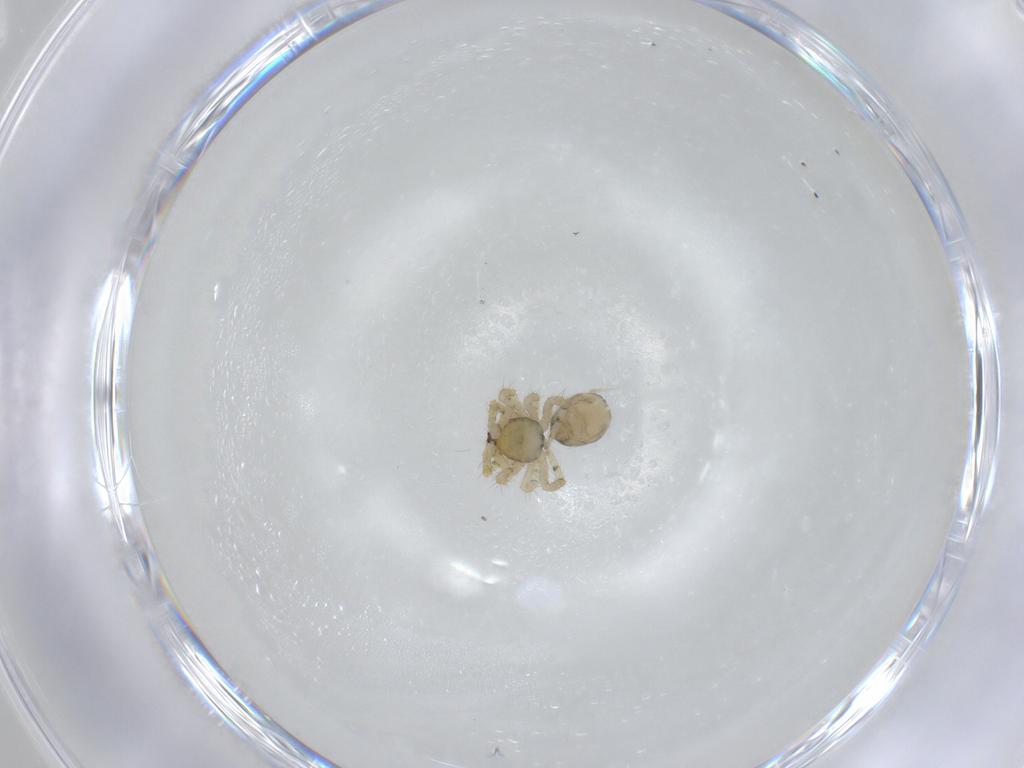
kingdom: Animalia
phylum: Arthropoda
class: Arachnida
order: Araneae
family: Theridiidae
